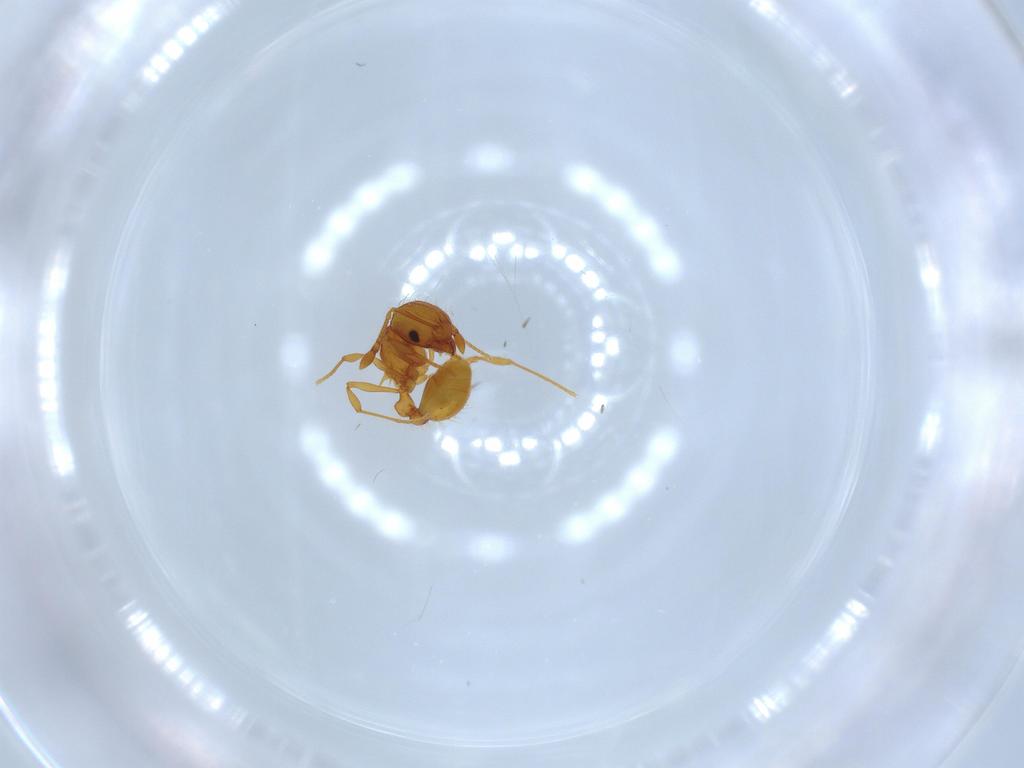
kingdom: Animalia
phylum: Arthropoda
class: Insecta
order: Hymenoptera
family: Formicidae
